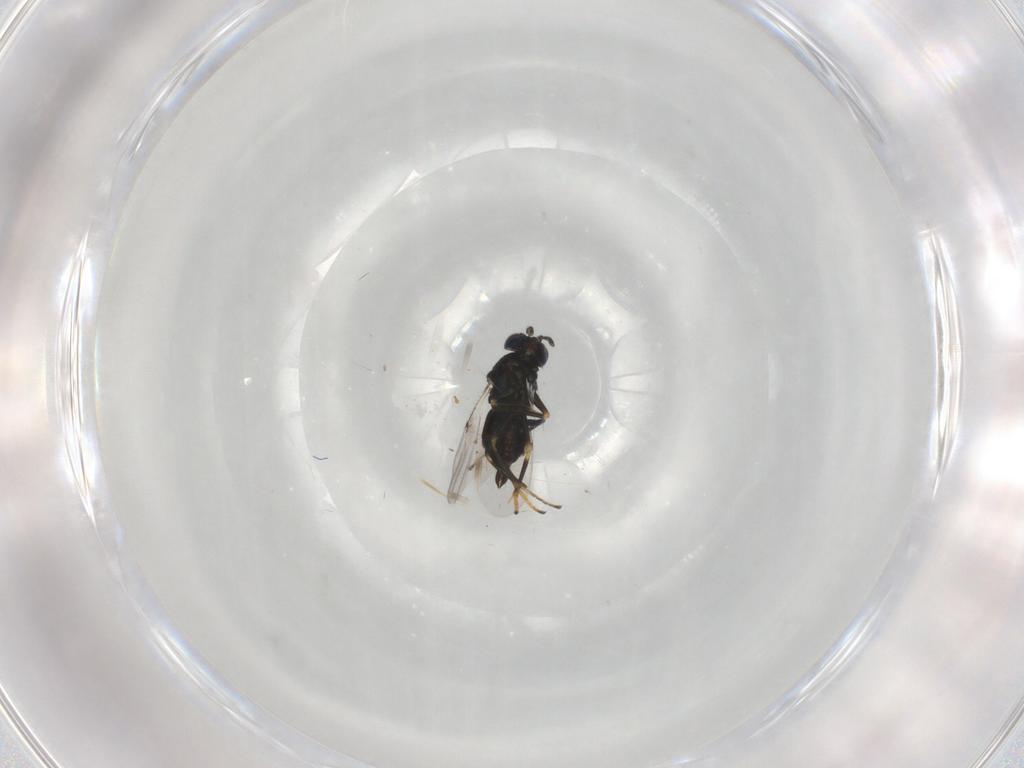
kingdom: Animalia
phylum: Arthropoda
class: Insecta
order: Hymenoptera
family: Encyrtidae
